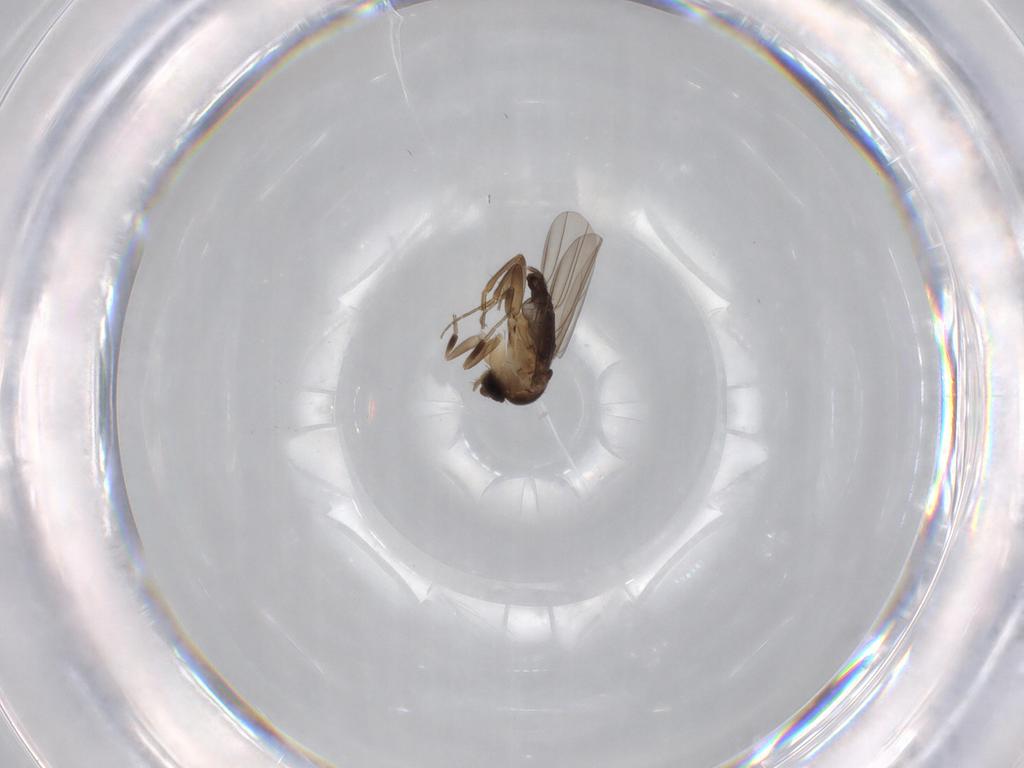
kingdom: Animalia
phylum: Arthropoda
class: Insecta
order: Diptera
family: Phoridae
